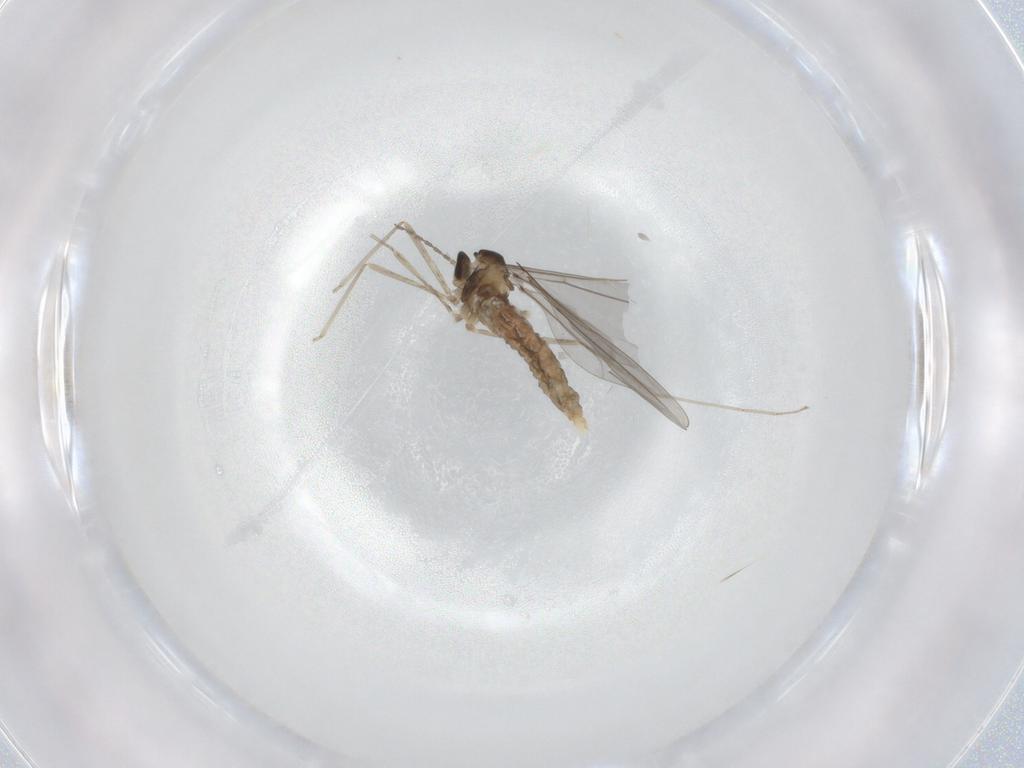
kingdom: Animalia
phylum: Arthropoda
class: Insecta
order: Diptera
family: Cecidomyiidae
